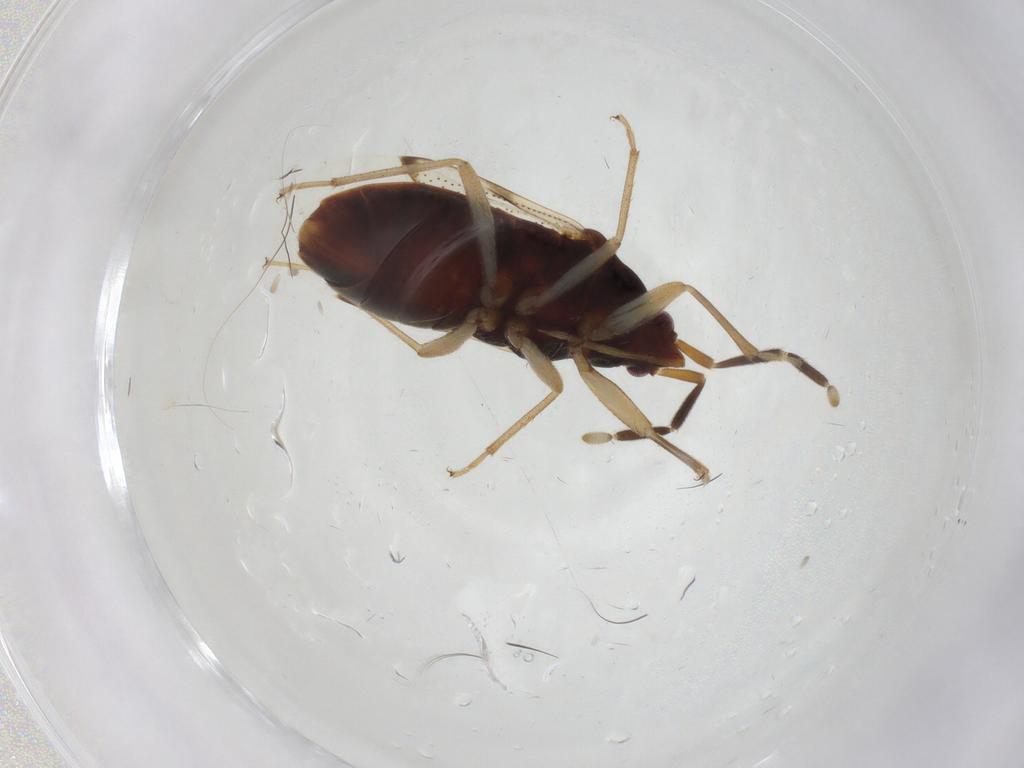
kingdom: Animalia
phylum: Arthropoda
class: Insecta
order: Hemiptera
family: Rhyparochromidae
